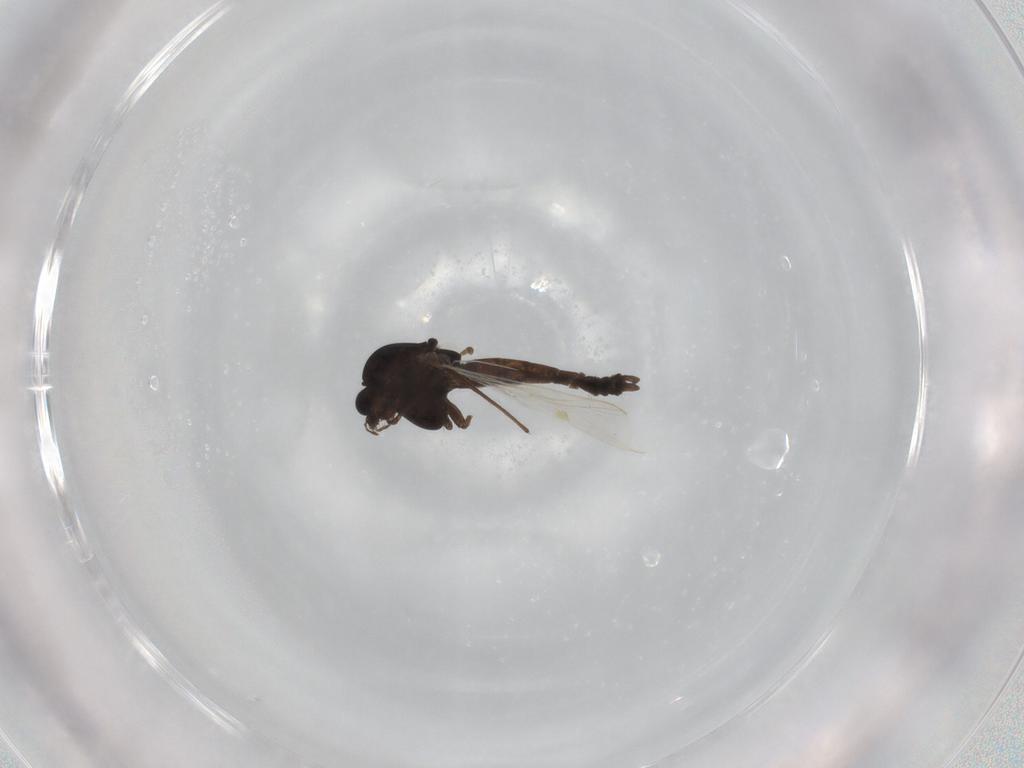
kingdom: Animalia
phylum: Arthropoda
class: Insecta
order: Diptera
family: Chironomidae
